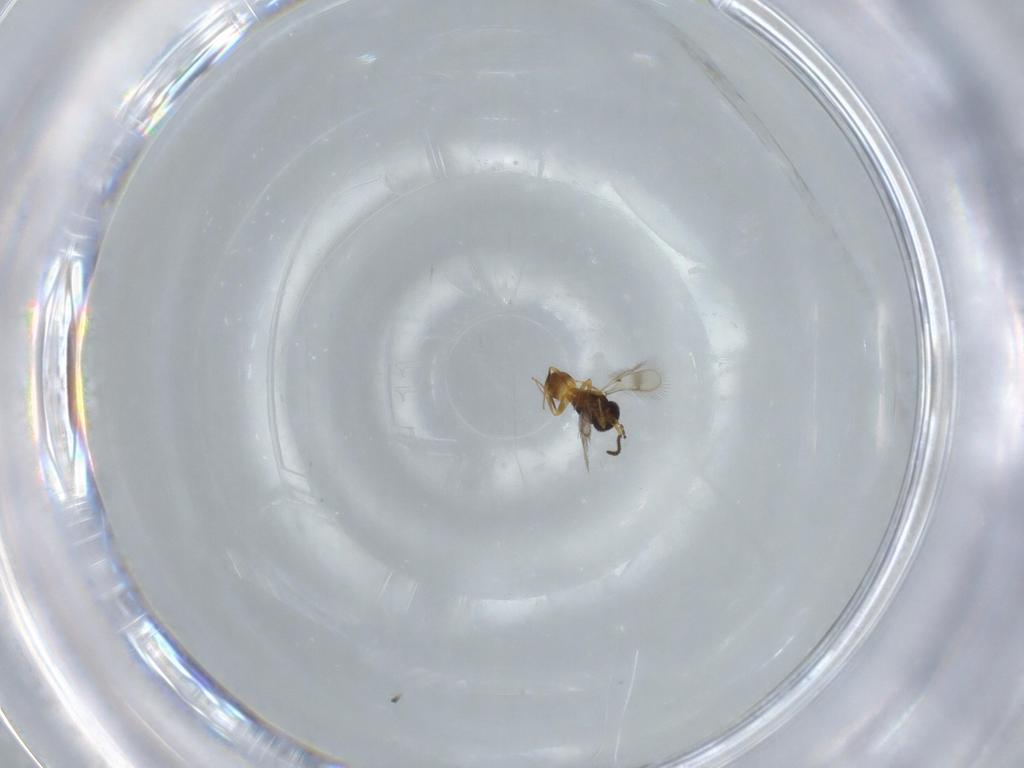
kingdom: Animalia
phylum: Arthropoda
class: Insecta
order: Hymenoptera
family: Scelionidae
